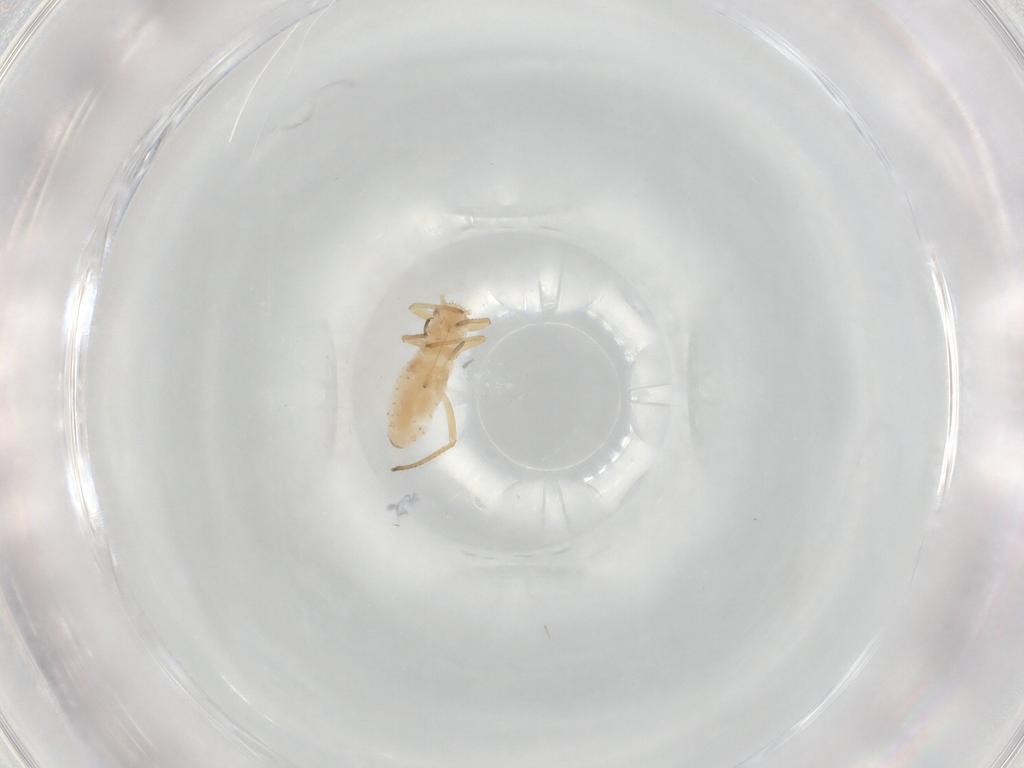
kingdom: Animalia
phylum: Arthropoda
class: Insecta
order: Hemiptera
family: Aphididae
